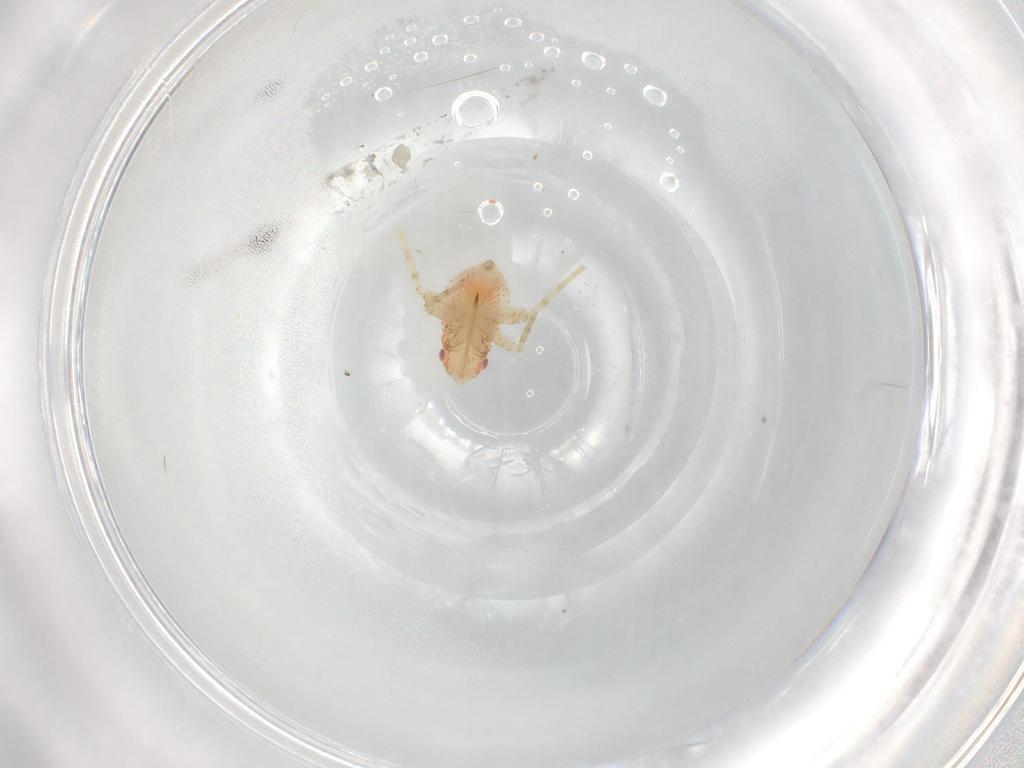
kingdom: Animalia
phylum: Arthropoda
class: Insecta
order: Hemiptera
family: Miridae
